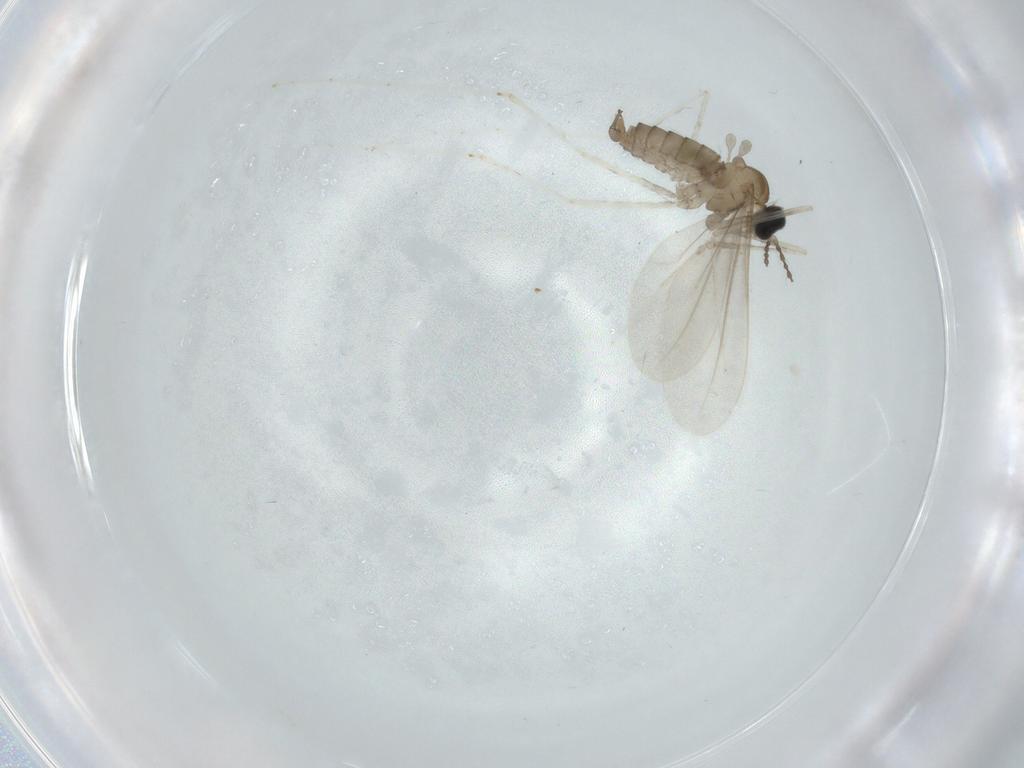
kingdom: Animalia
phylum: Arthropoda
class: Insecta
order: Diptera
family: Cecidomyiidae
